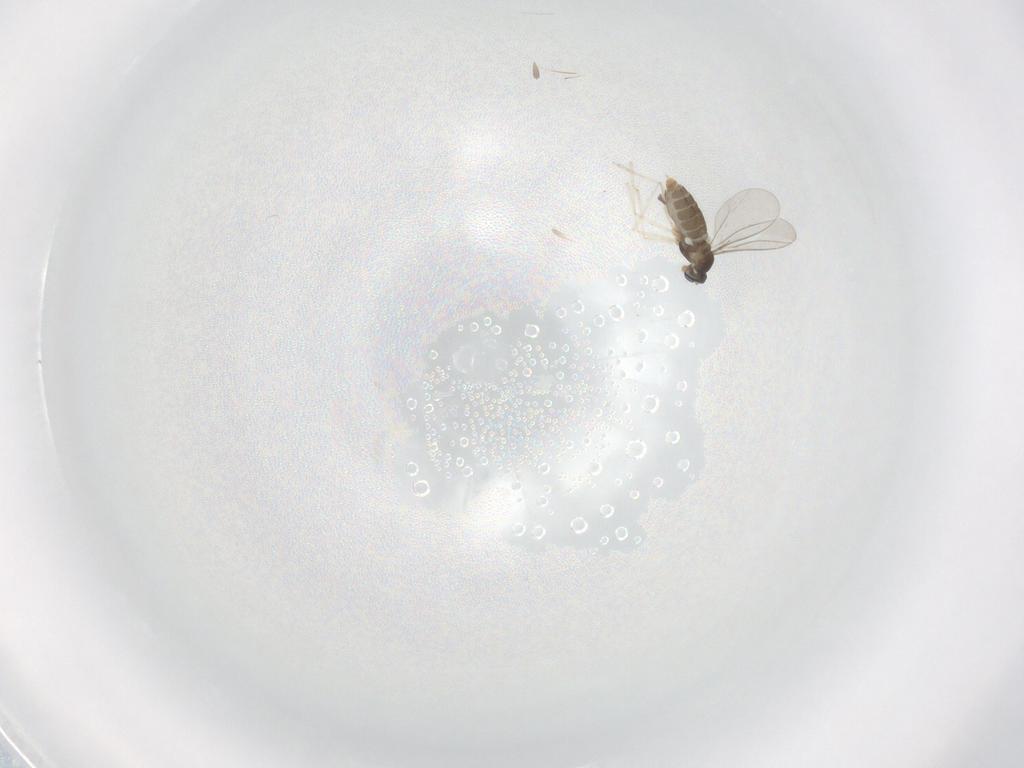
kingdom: Animalia
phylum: Arthropoda
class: Insecta
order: Diptera
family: Cecidomyiidae
